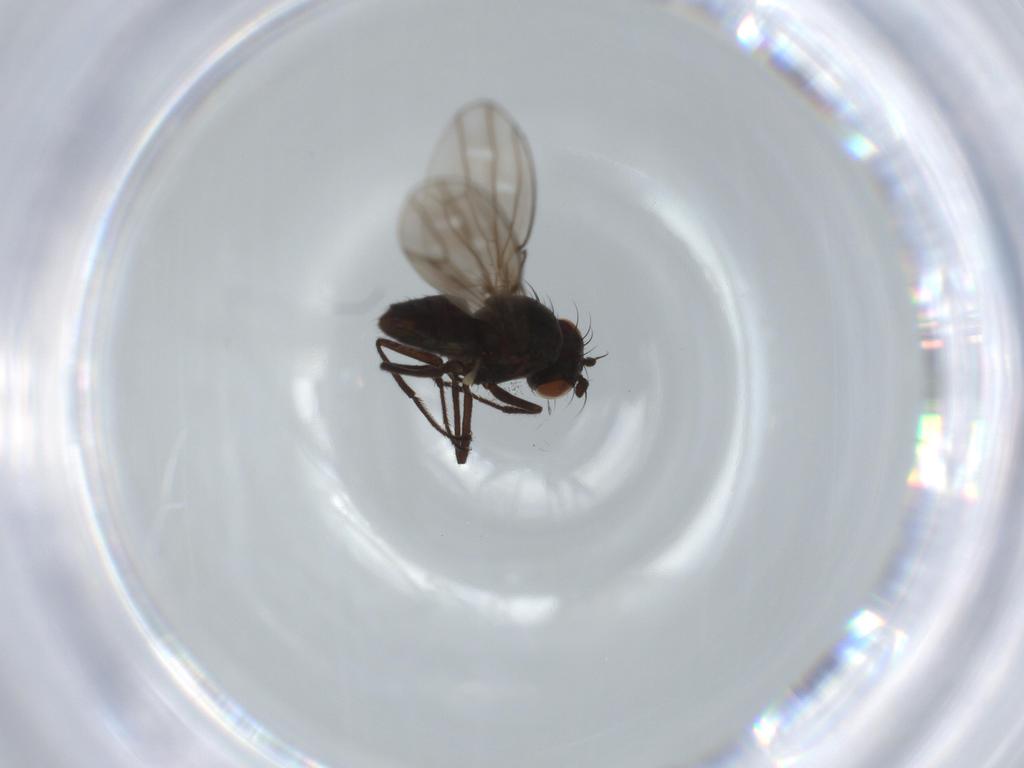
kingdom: Animalia
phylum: Arthropoda
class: Insecta
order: Diptera
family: Ephydridae
